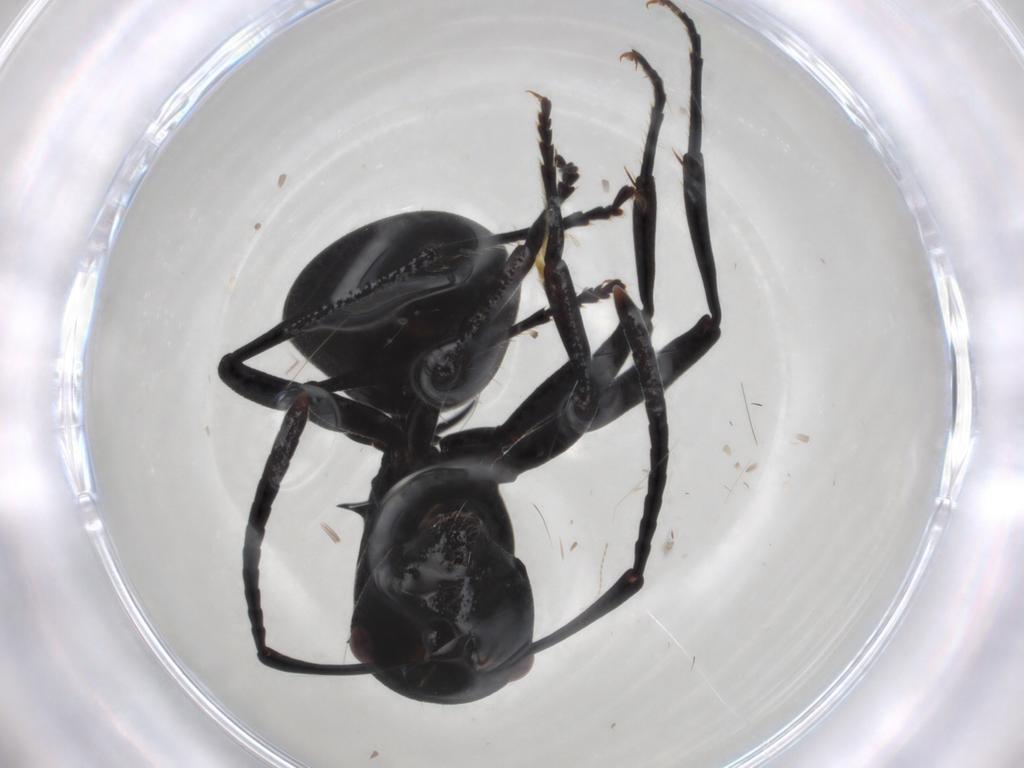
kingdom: Animalia
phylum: Arthropoda
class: Insecta
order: Hymenoptera
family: Formicidae
